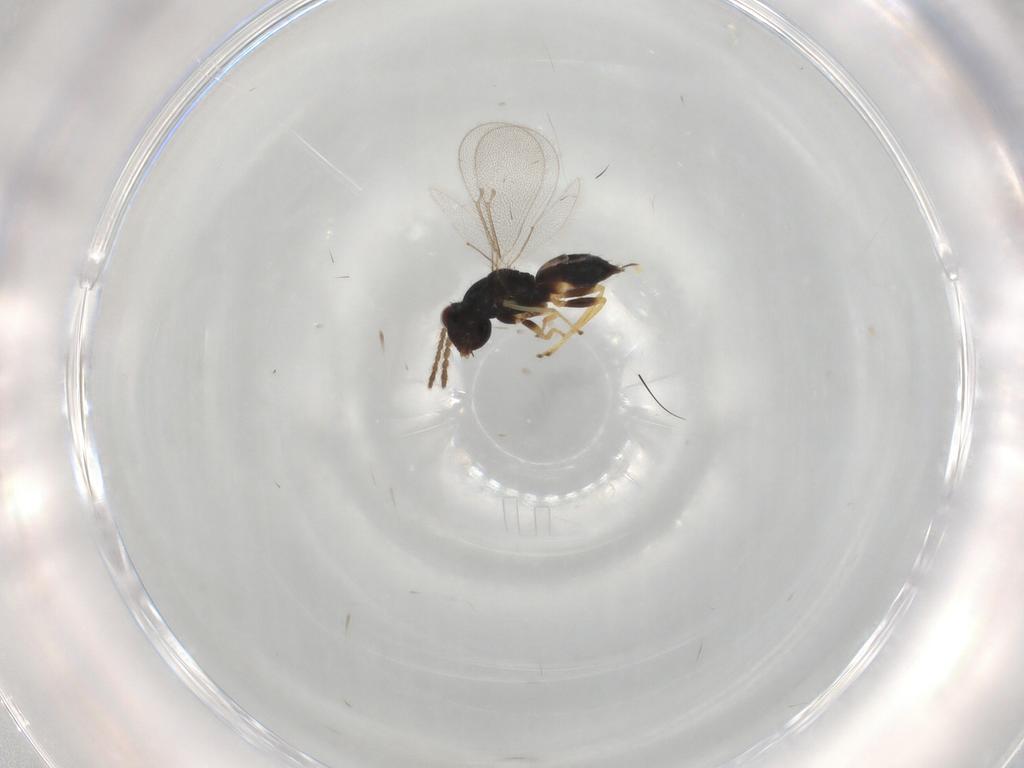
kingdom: Animalia
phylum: Arthropoda
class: Insecta
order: Hymenoptera
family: Eulophidae
